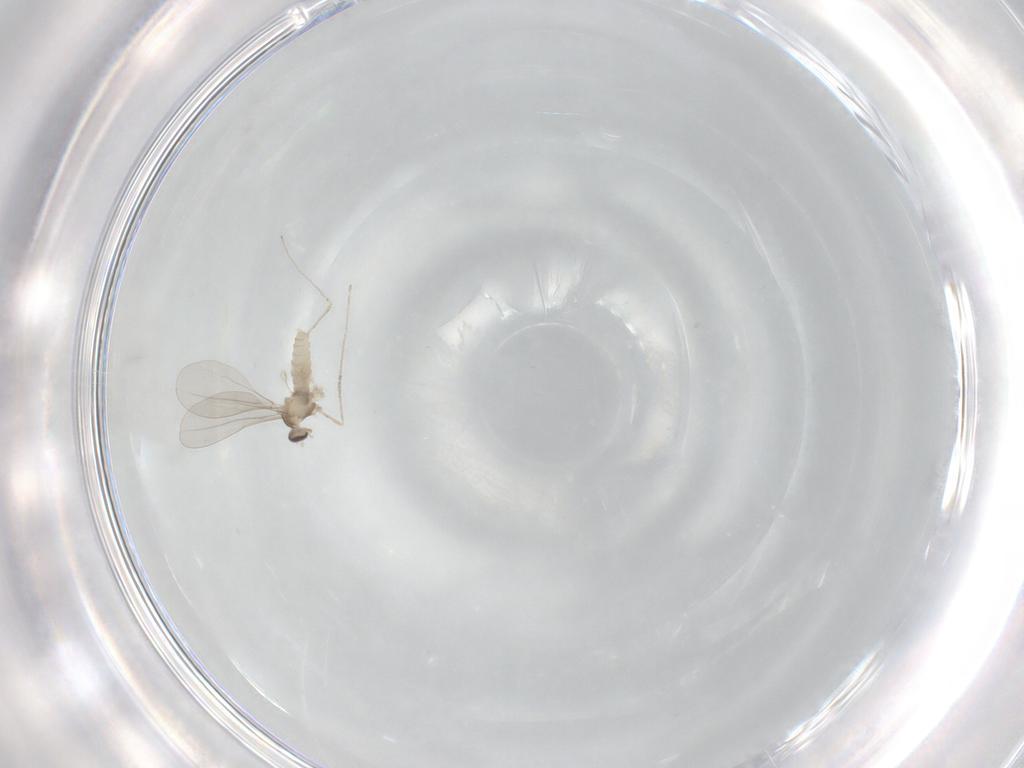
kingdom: Animalia
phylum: Arthropoda
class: Insecta
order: Diptera
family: Cecidomyiidae
